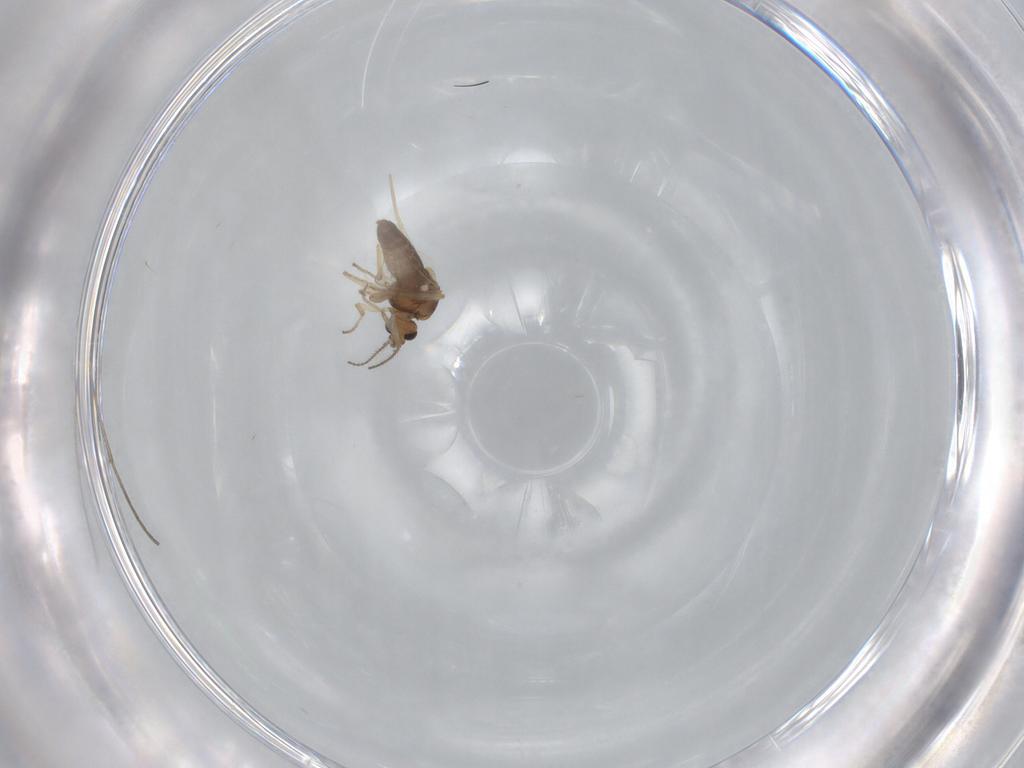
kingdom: Animalia
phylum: Arthropoda
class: Insecta
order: Diptera
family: Ceratopogonidae
